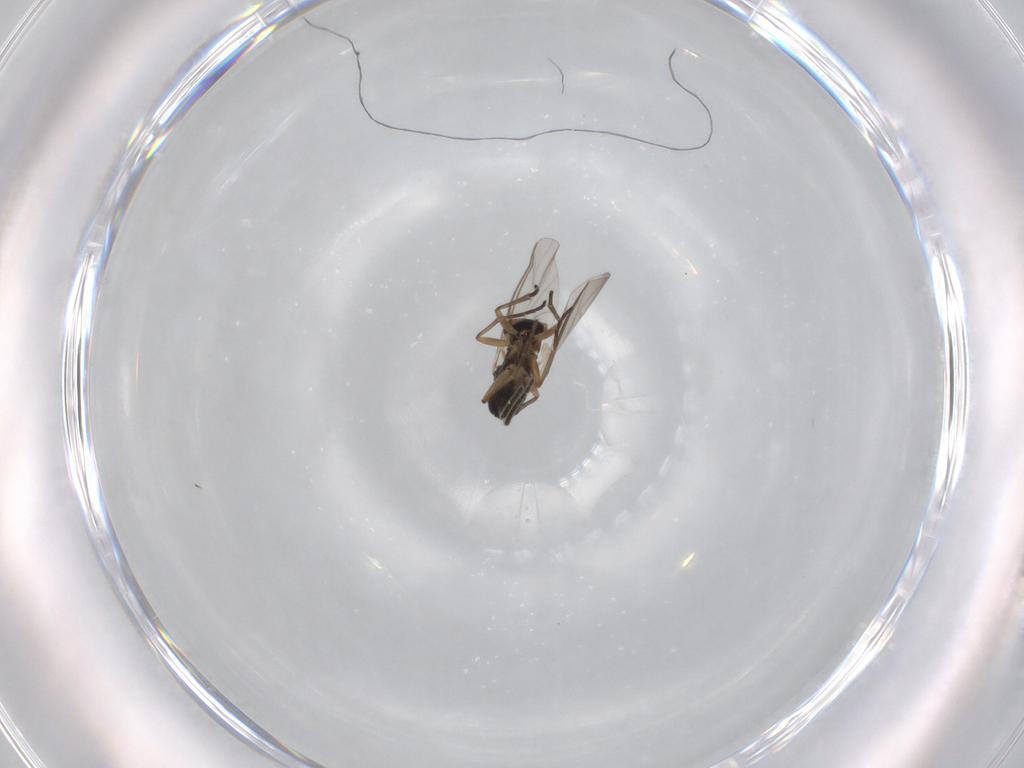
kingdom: Animalia
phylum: Arthropoda
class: Insecta
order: Diptera
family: Sciaridae
